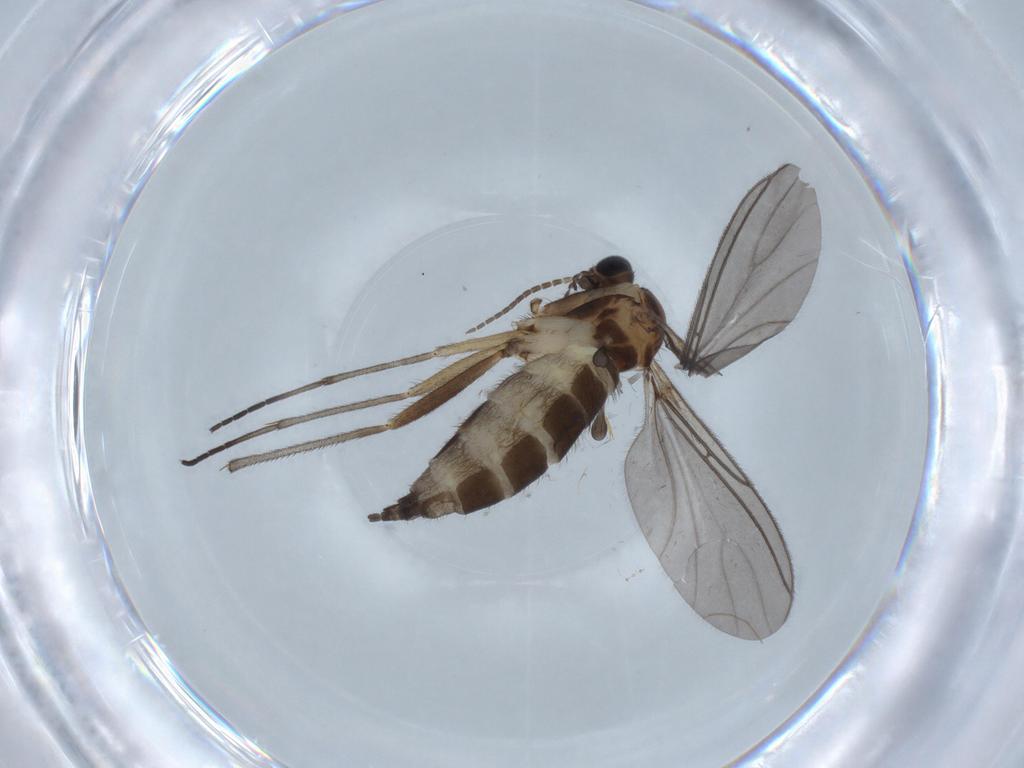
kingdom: Animalia
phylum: Arthropoda
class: Insecta
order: Diptera
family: Sciaridae
